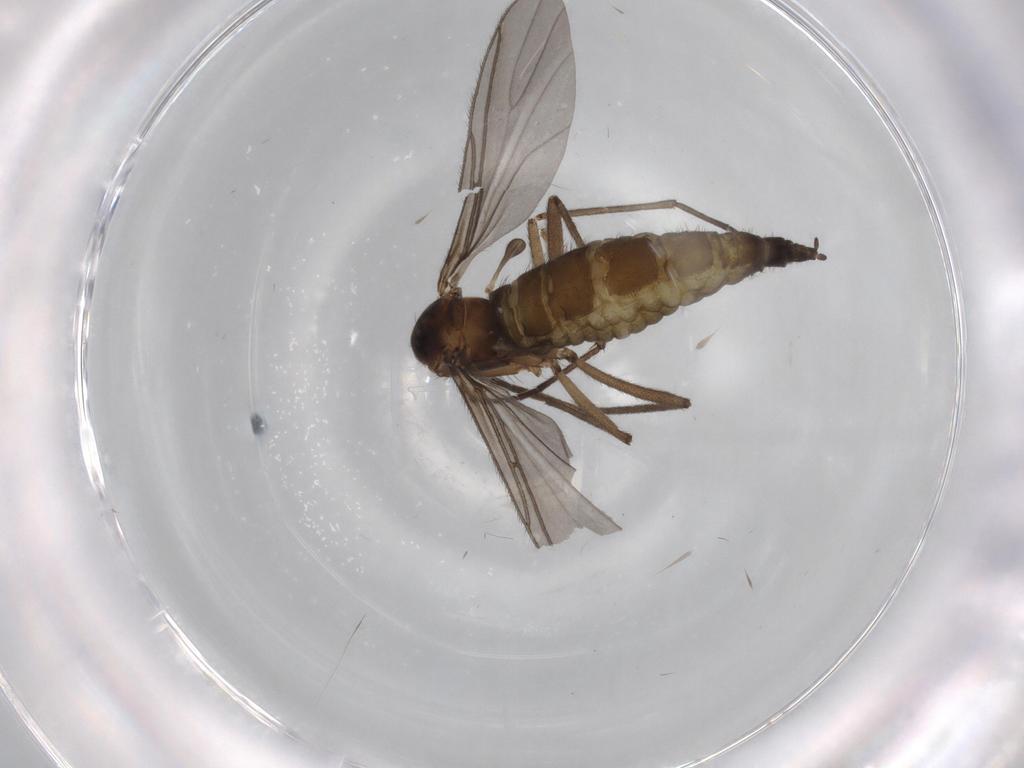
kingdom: Animalia
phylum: Arthropoda
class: Insecta
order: Diptera
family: Sciaridae
